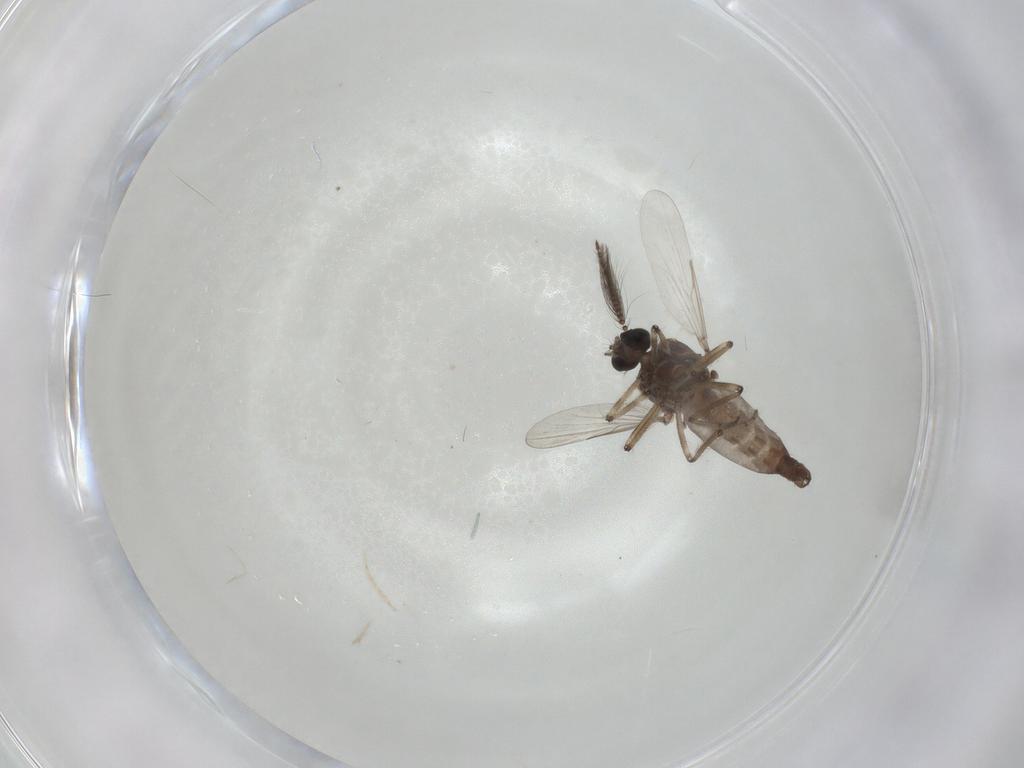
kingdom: Animalia
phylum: Arthropoda
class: Insecta
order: Diptera
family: Ceratopogonidae
